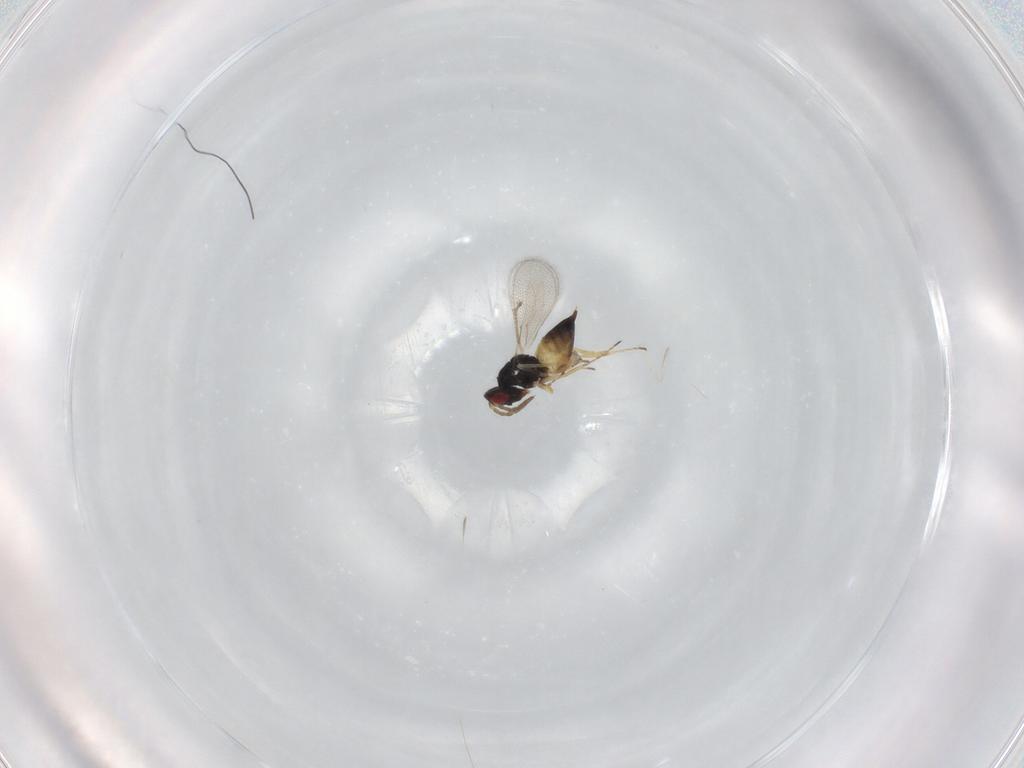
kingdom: Animalia
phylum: Arthropoda
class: Insecta
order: Hymenoptera
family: Eulophidae
